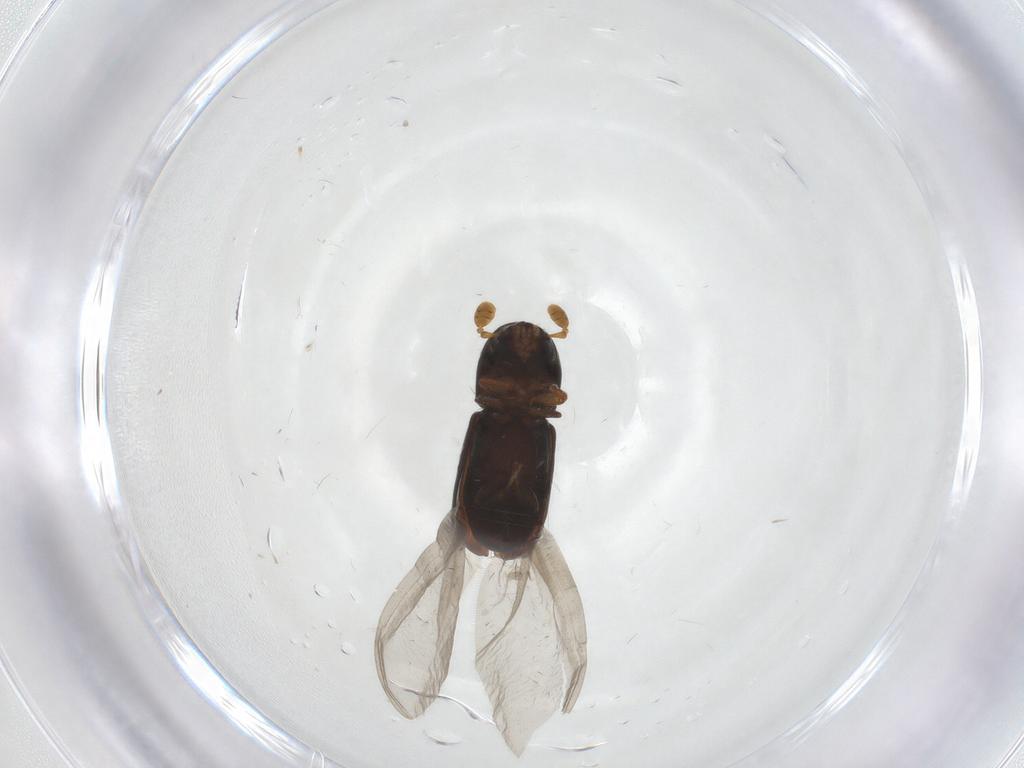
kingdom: Animalia
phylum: Arthropoda
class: Insecta
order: Coleoptera
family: Curculionidae
